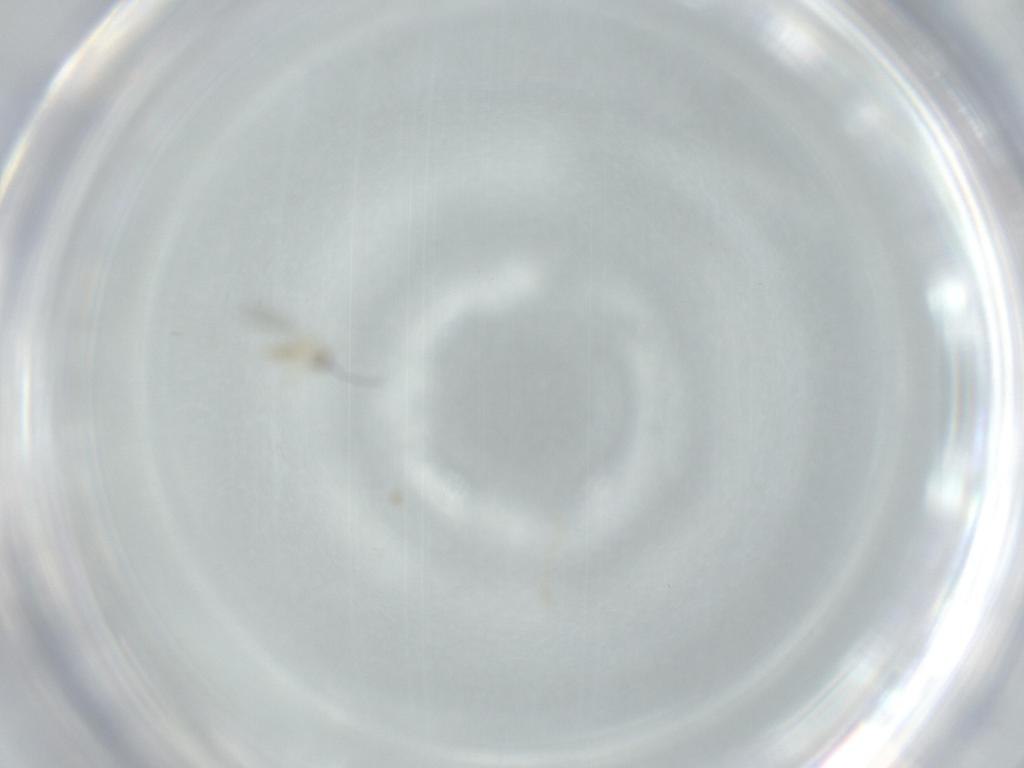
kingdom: Animalia
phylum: Arthropoda
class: Insecta
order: Diptera
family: Cecidomyiidae
